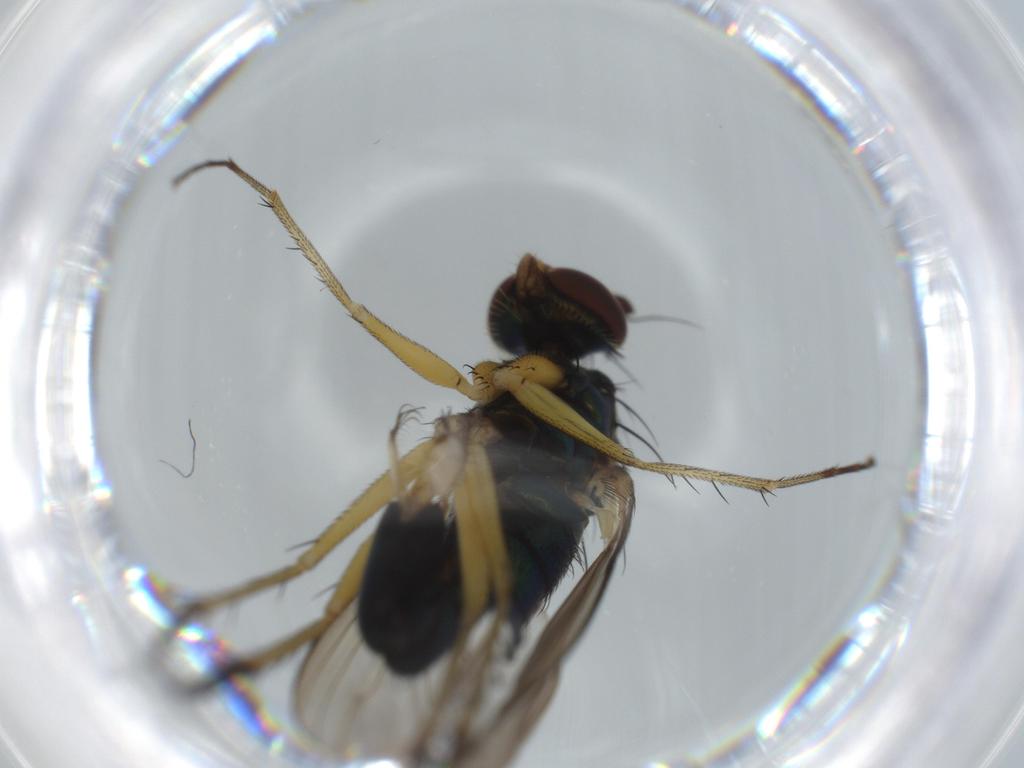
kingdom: Animalia
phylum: Arthropoda
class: Insecta
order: Diptera
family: Dolichopodidae
